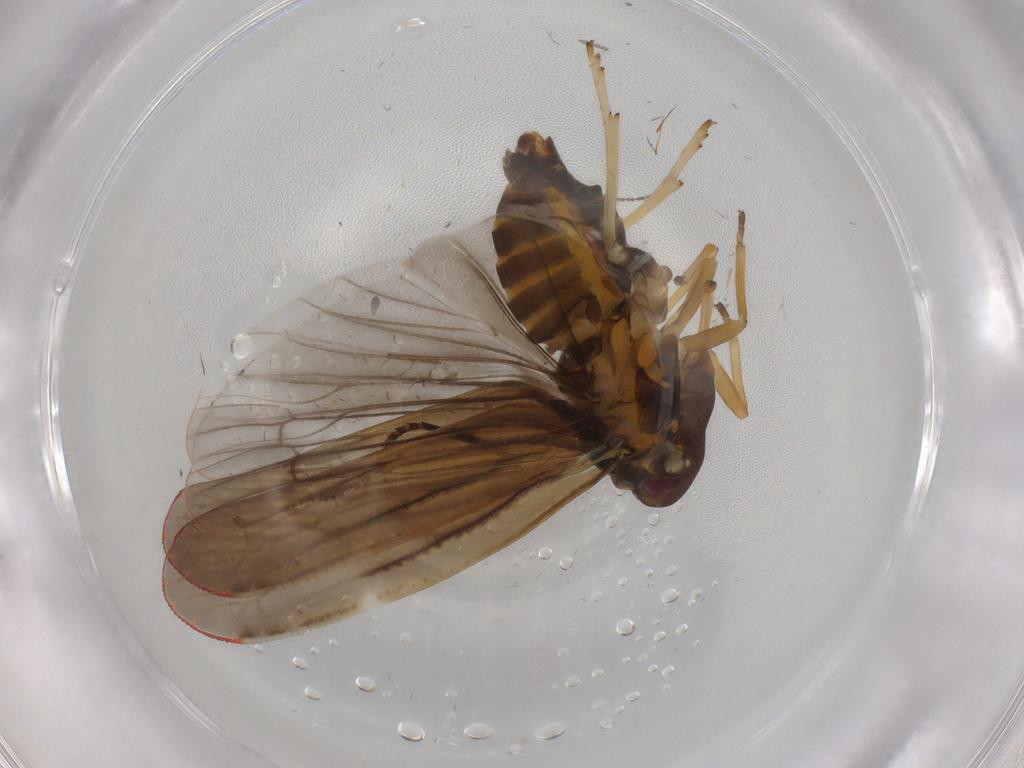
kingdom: Animalia
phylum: Arthropoda
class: Insecta
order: Hemiptera
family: Derbidae
